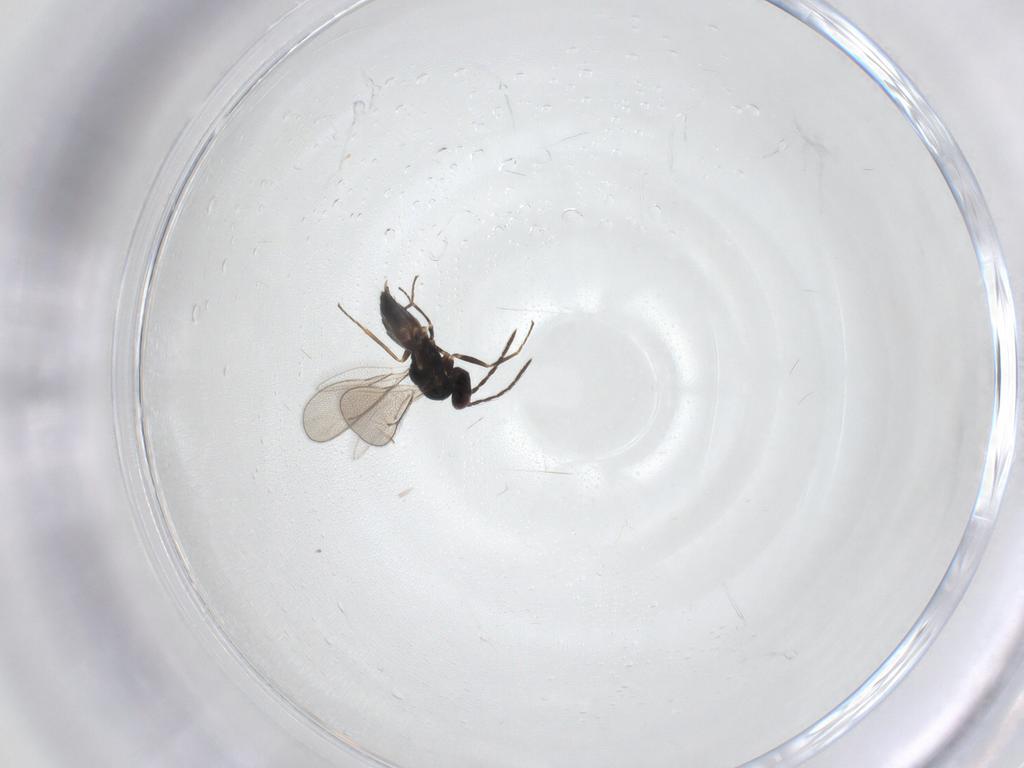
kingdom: Animalia
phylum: Arthropoda
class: Insecta
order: Hymenoptera
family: Eulophidae
